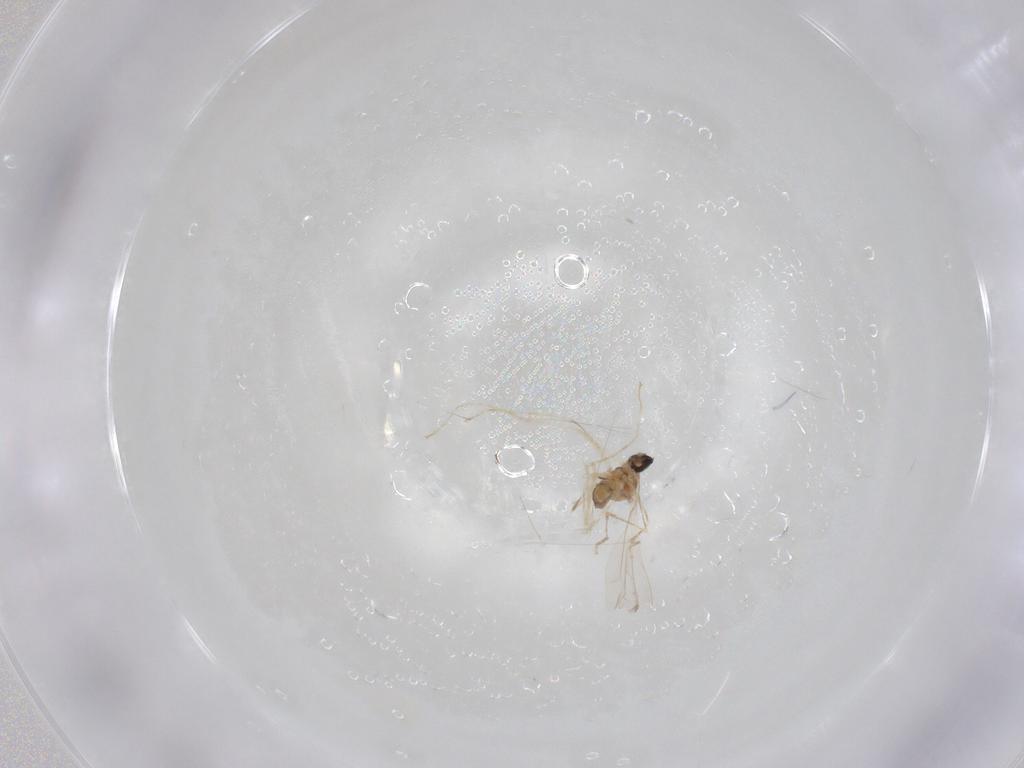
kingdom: Animalia
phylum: Arthropoda
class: Insecta
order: Diptera
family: Cecidomyiidae
